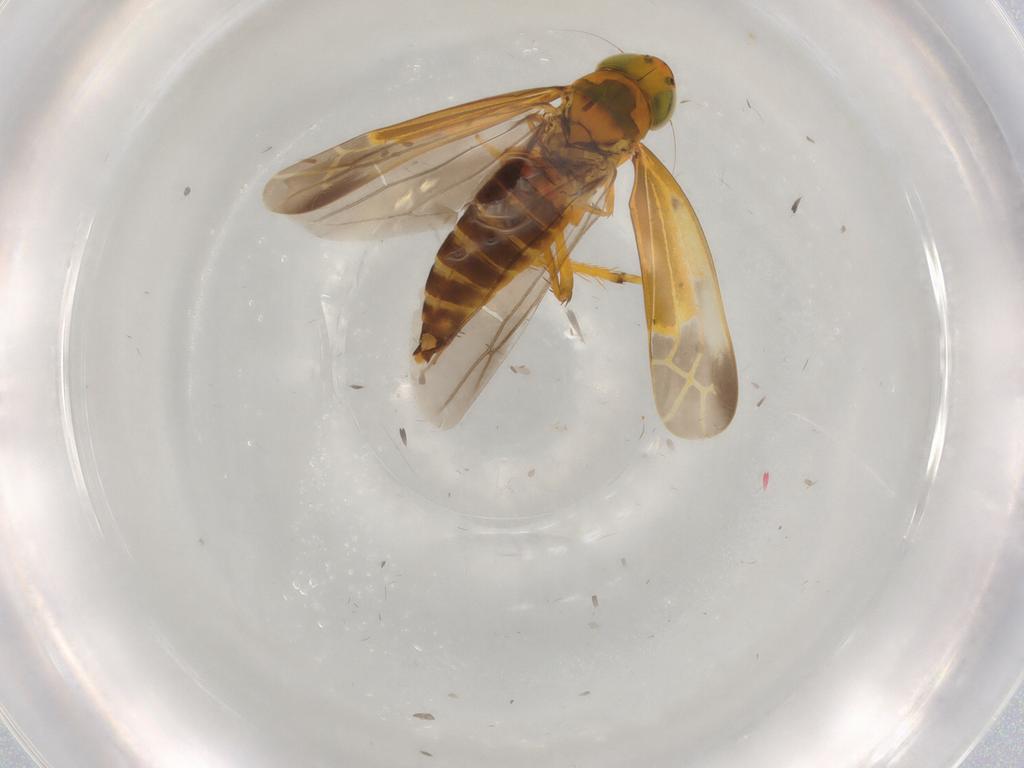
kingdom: Animalia
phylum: Arthropoda
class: Insecta
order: Hemiptera
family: Cicadellidae
